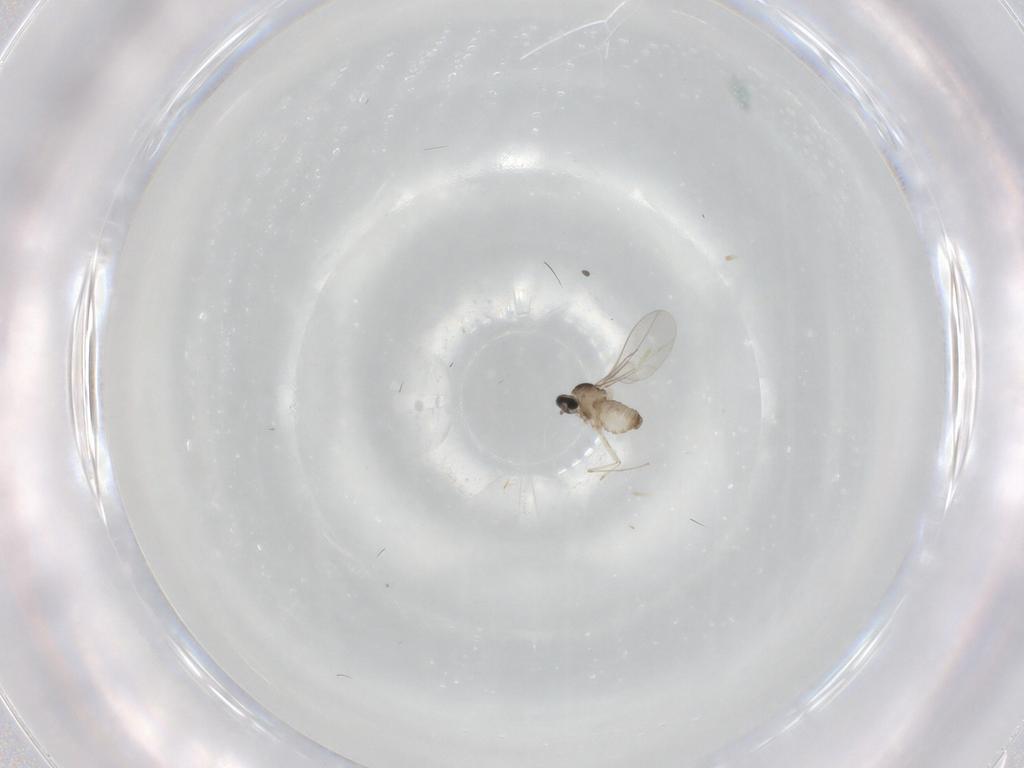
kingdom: Animalia
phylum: Arthropoda
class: Insecta
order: Diptera
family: Cecidomyiidae
